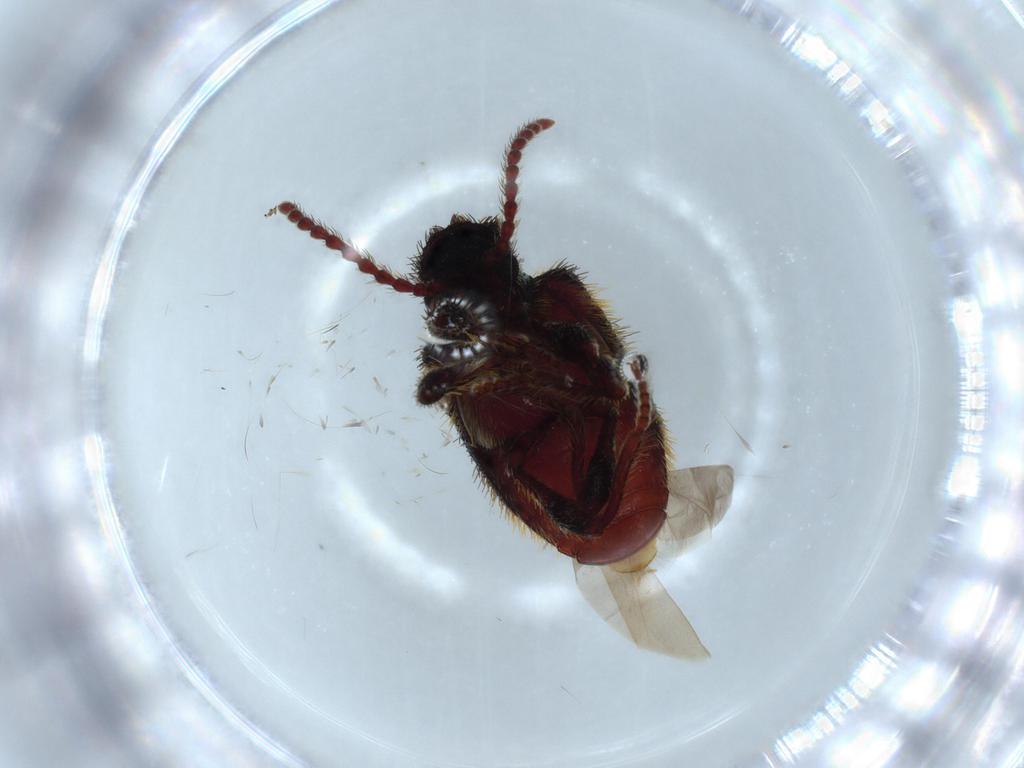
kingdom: Animalia
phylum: Arthropoda
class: Insecta
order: Coleoptera
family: Ptinidae
